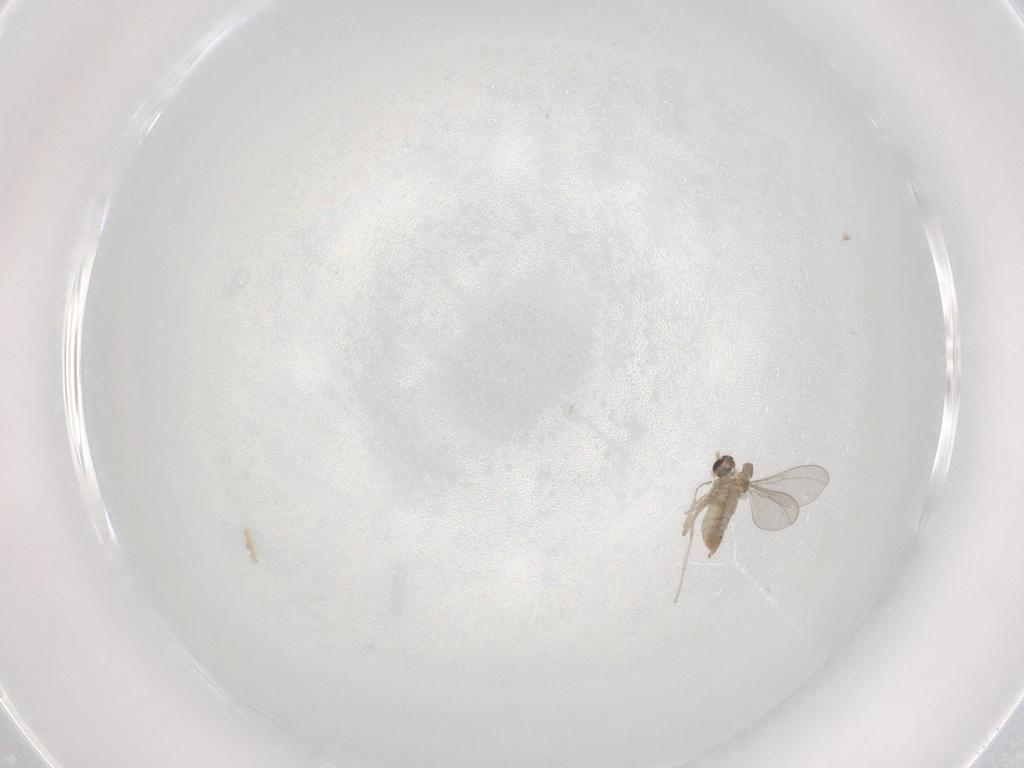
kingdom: Animalia
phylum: Arthropoda
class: Insecta
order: Diptera
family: Cecidomyiidae
